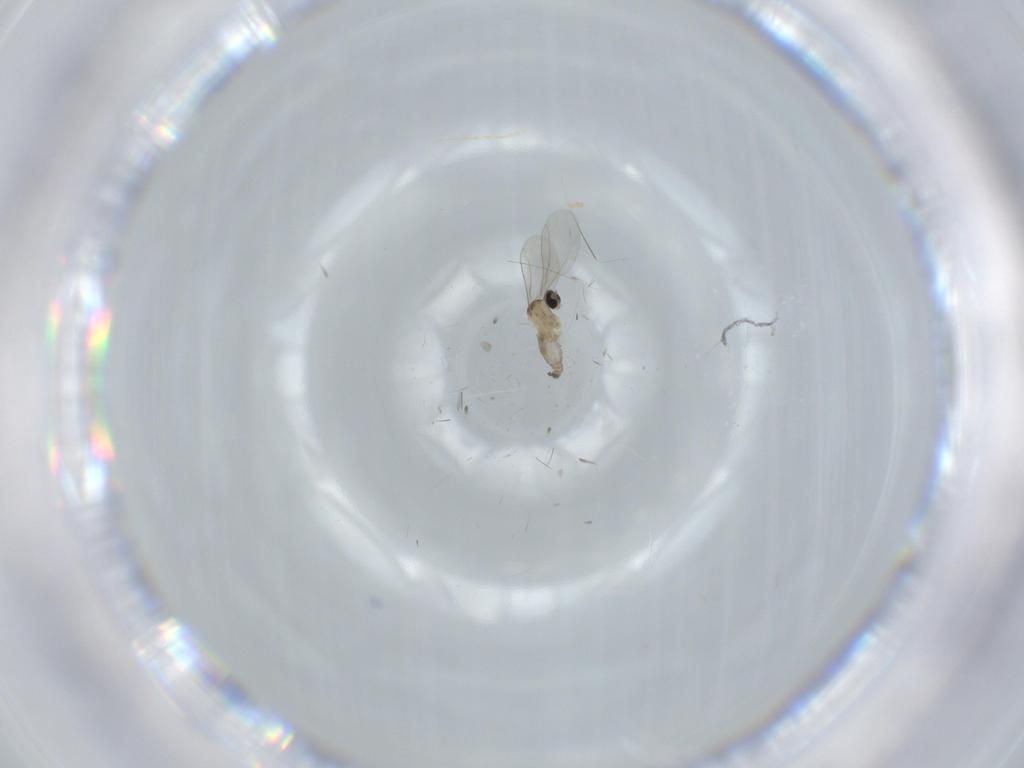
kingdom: Animalia
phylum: Arthropoda
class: Insecta
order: Diptera
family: Cecidomyiidae
